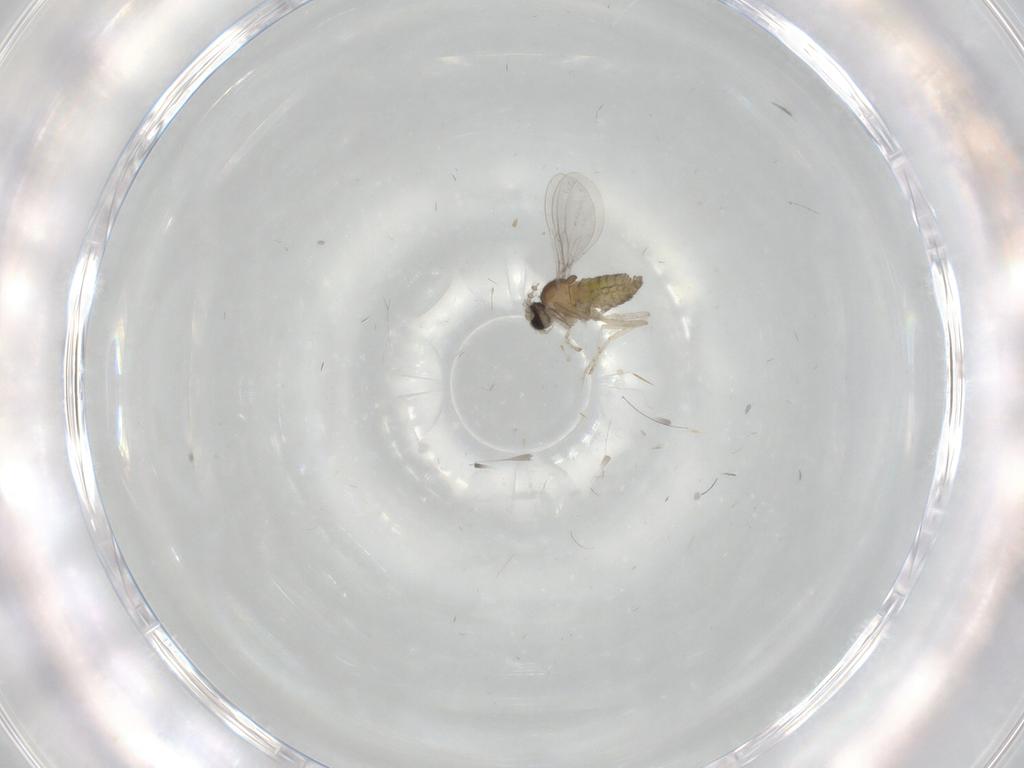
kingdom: Animalia
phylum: Arthropoda
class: Insecta
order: Diptera
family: Cecidomyiidae
